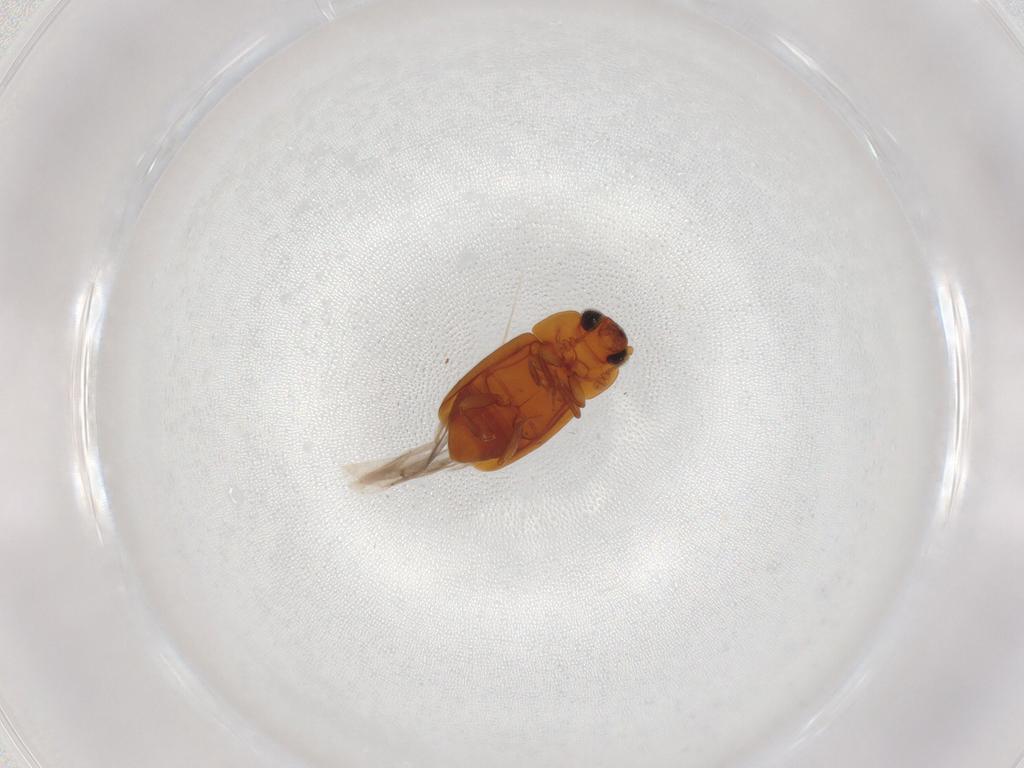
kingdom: Animalia
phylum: Arthropoda
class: Insecta
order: Coleoptera
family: Nitidulidae
